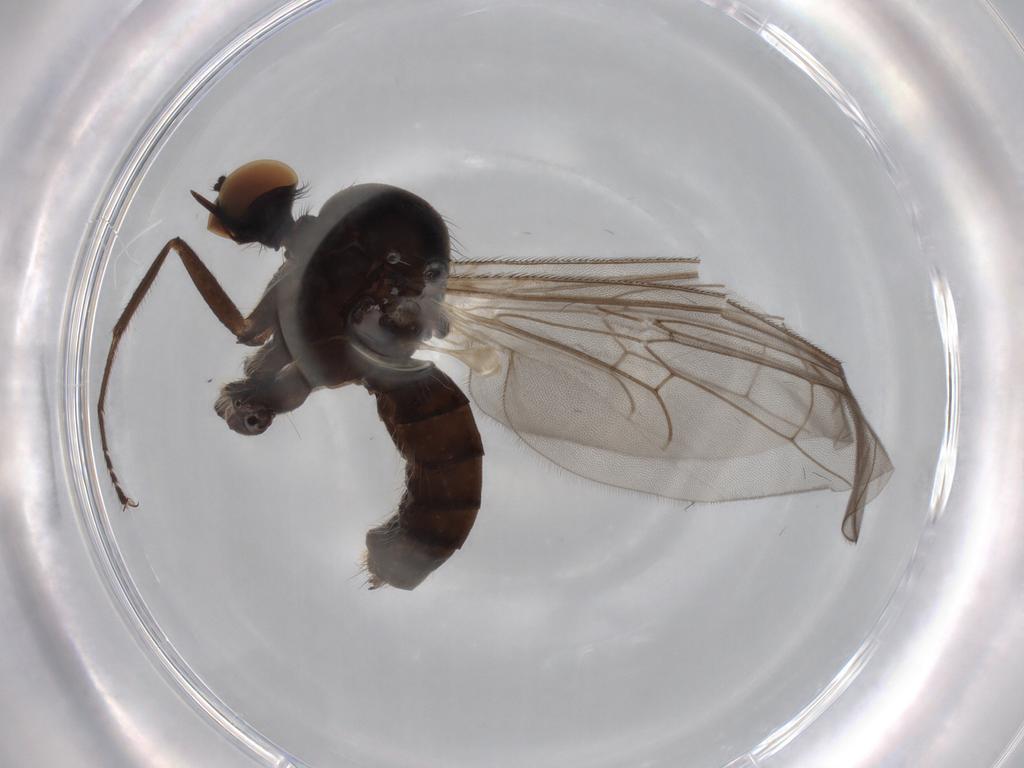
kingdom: Animalia
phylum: Arthropoda
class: Insecta
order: Diptera
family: Hybotidae
